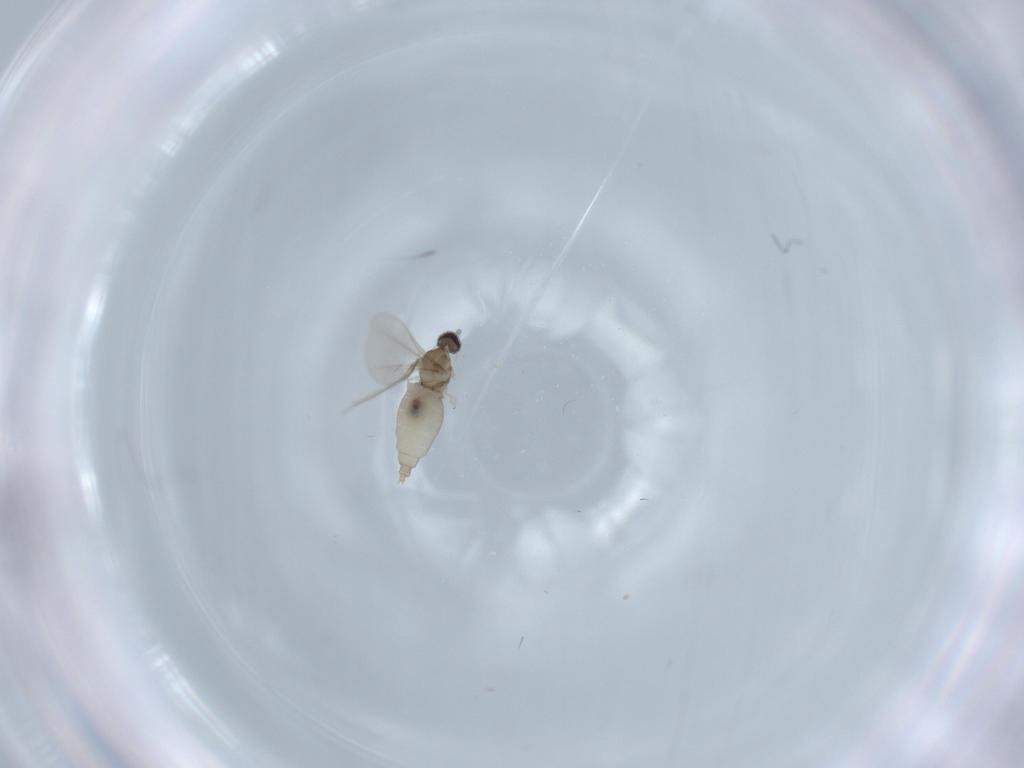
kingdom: Animalia
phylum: Arthropoda
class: Insecta
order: Diptera
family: Cecidomyiidae
